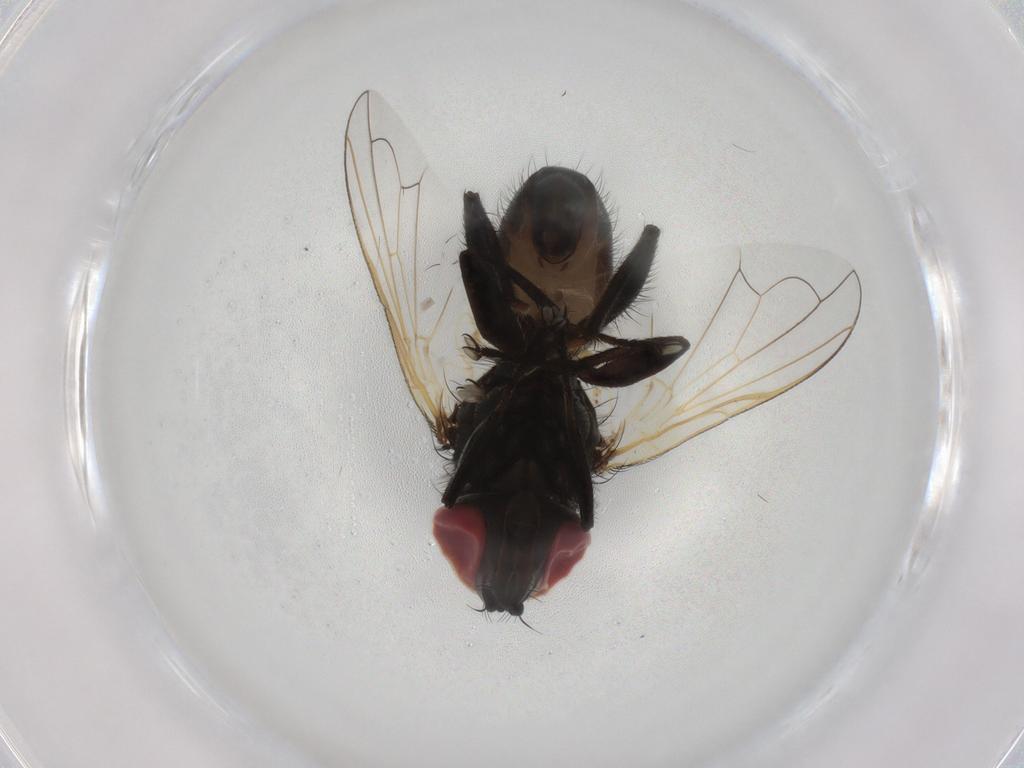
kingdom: Animalia
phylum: Arthropoda
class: Insecta
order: Diptera
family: Tachinidae
